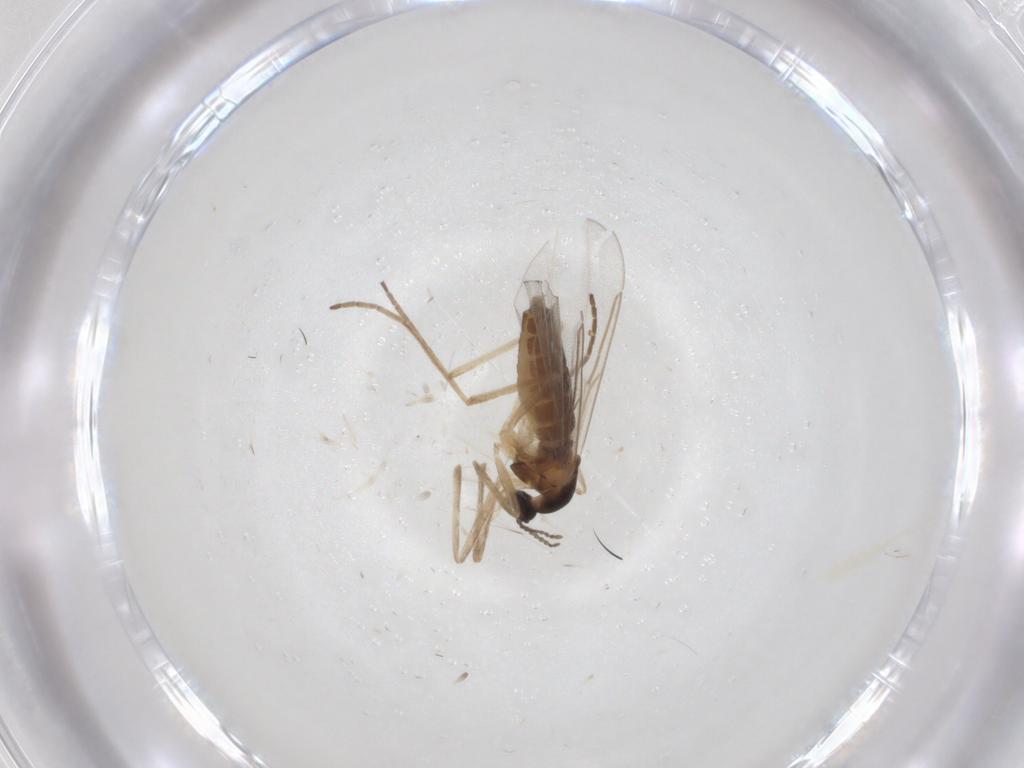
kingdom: Animalia
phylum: Arthropoda
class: Insecta
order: Diptera
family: Cecidomyiidae
